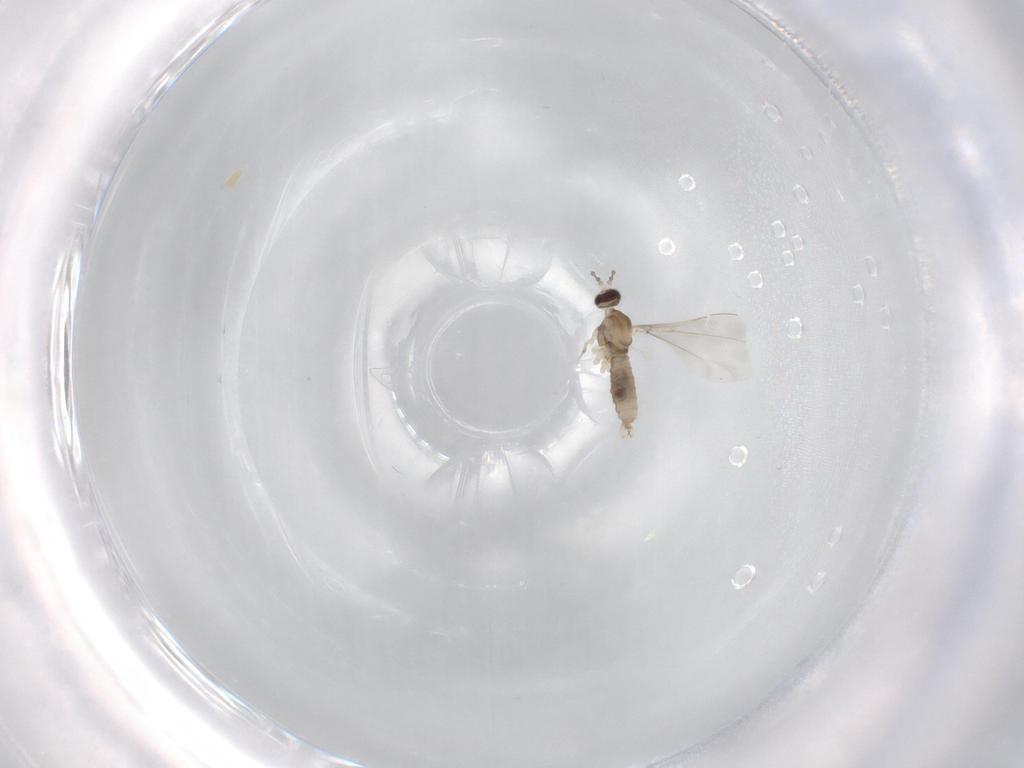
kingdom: Animalia
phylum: Arthropoda
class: Insecta
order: Diptera
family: Cecidomyiidae
